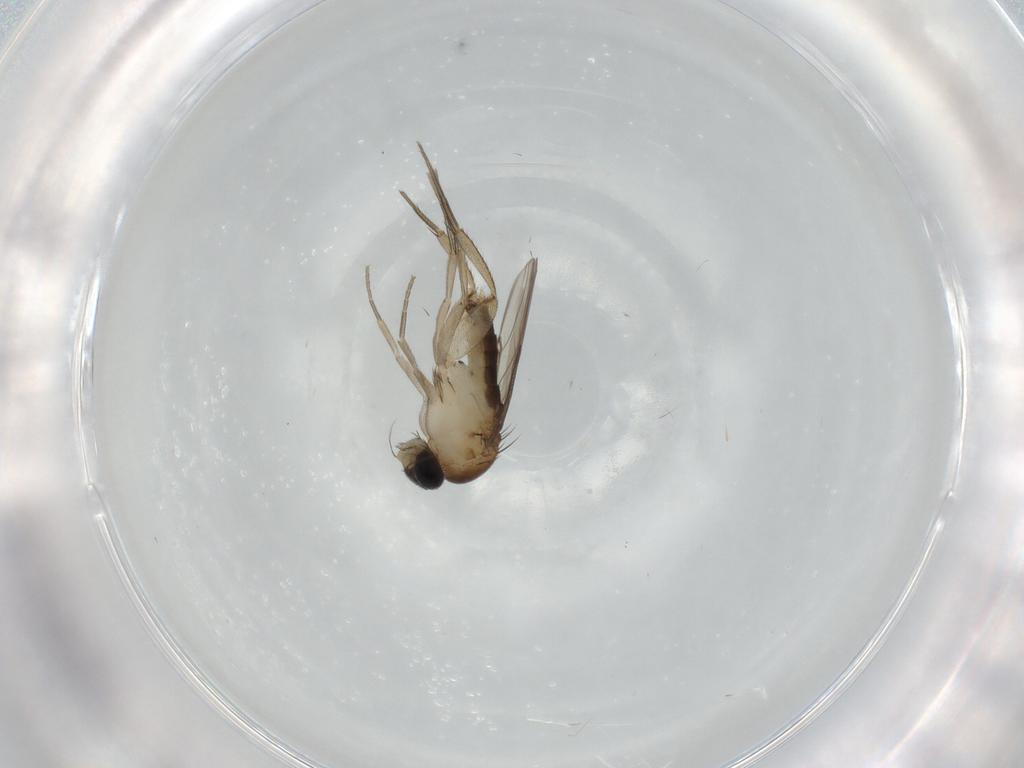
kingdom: Animalia
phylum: Arthropoda
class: Insecta
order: Diptera
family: Phoridae
